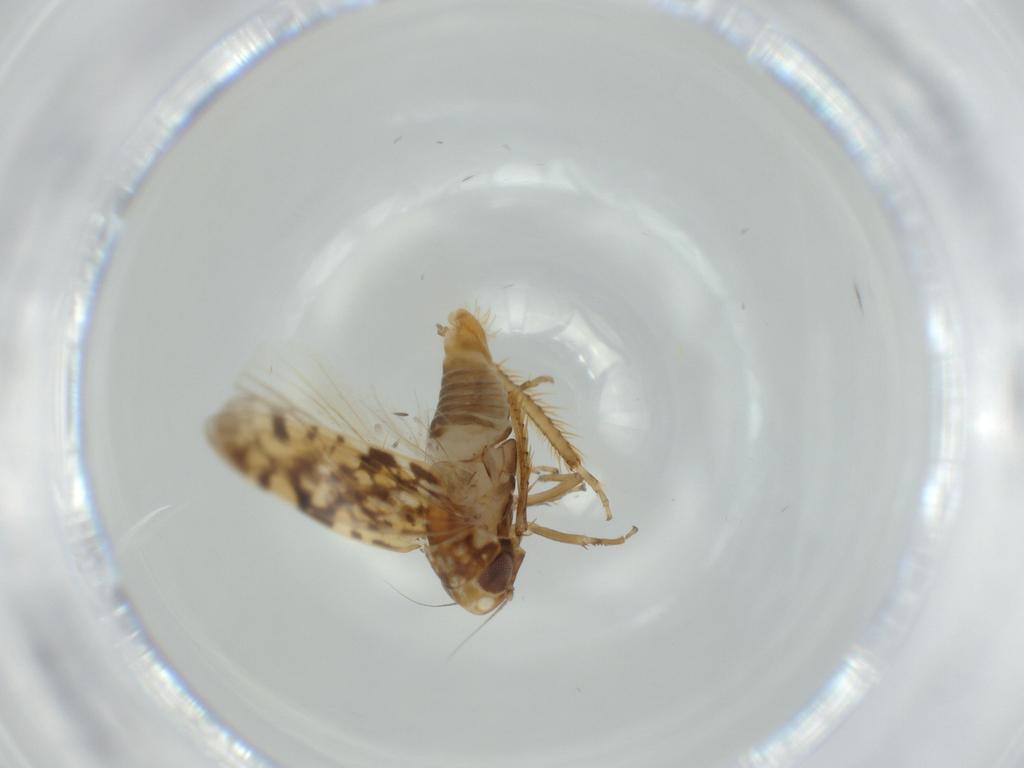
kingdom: Animalia
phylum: Arthropoda
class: Insecta
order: Hemiptera
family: Cicadellidae
